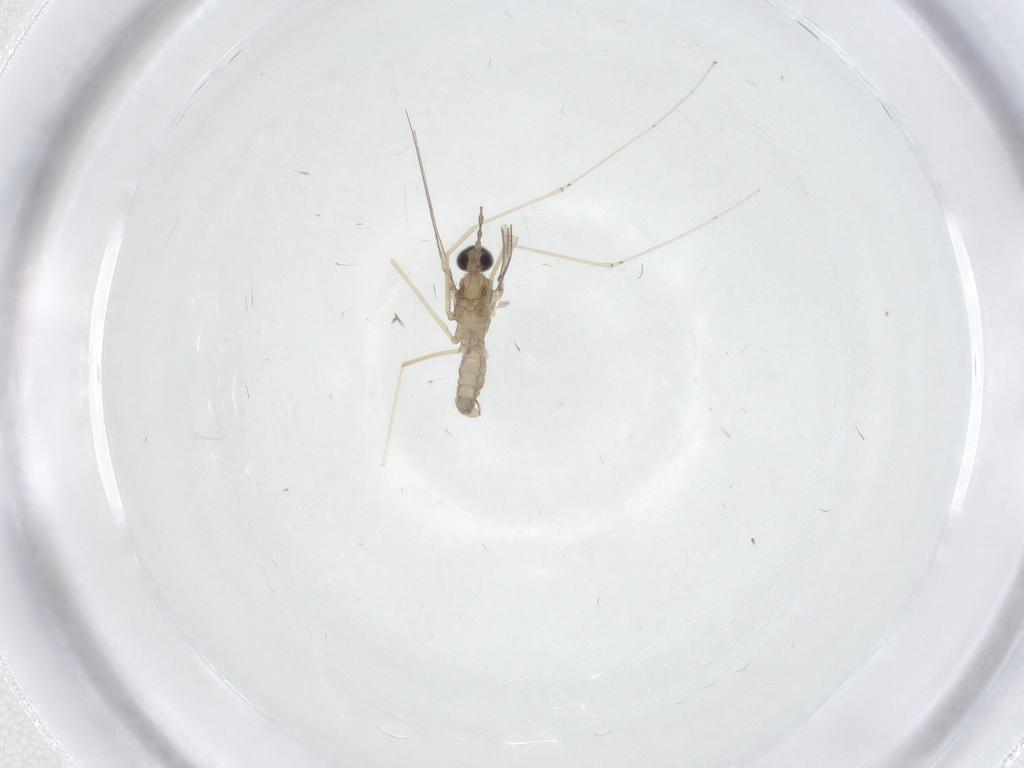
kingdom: Animalia
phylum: Arthropoda
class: Insecta
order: Diptera
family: Cecidomyiidae
